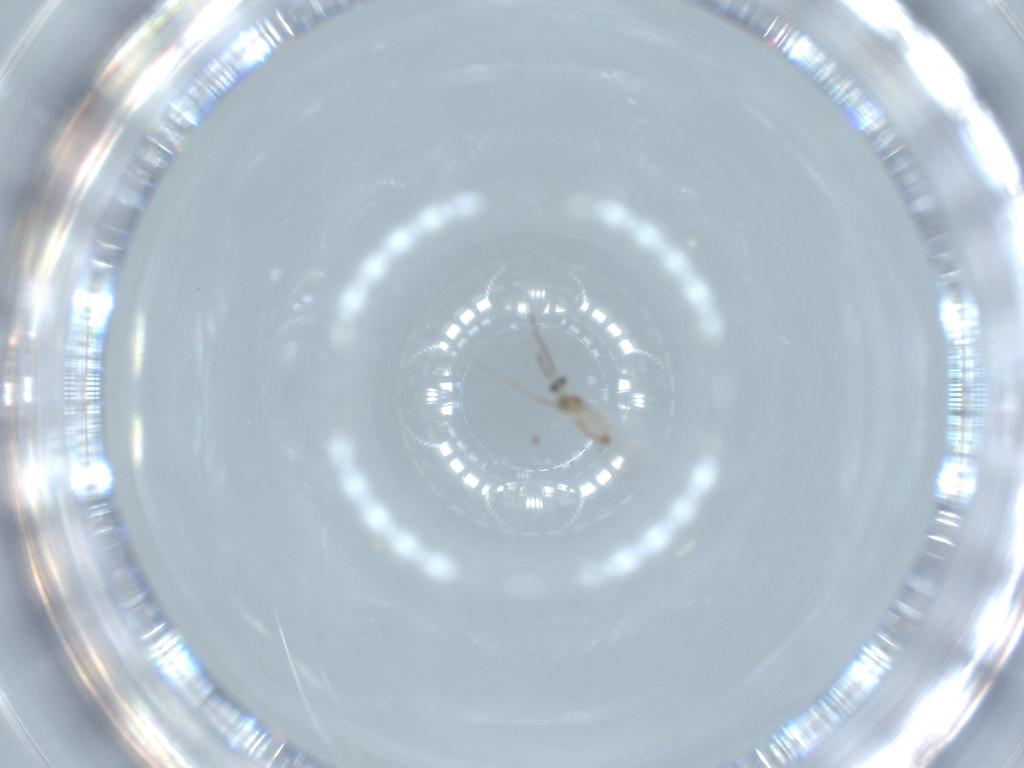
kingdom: Animalia
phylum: Arthropoda
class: Insecta
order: Diptera
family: Cecidomyiidae
